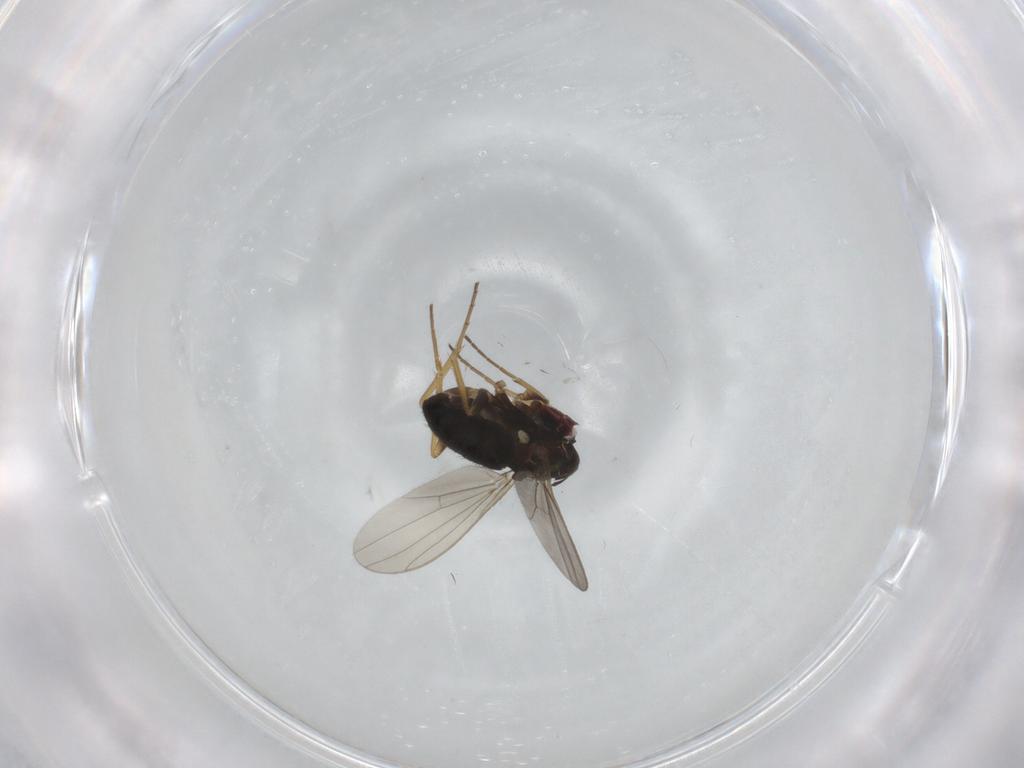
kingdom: Animalia
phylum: Arthropoda
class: Insecta
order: Diptera
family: Dolichopodidae
